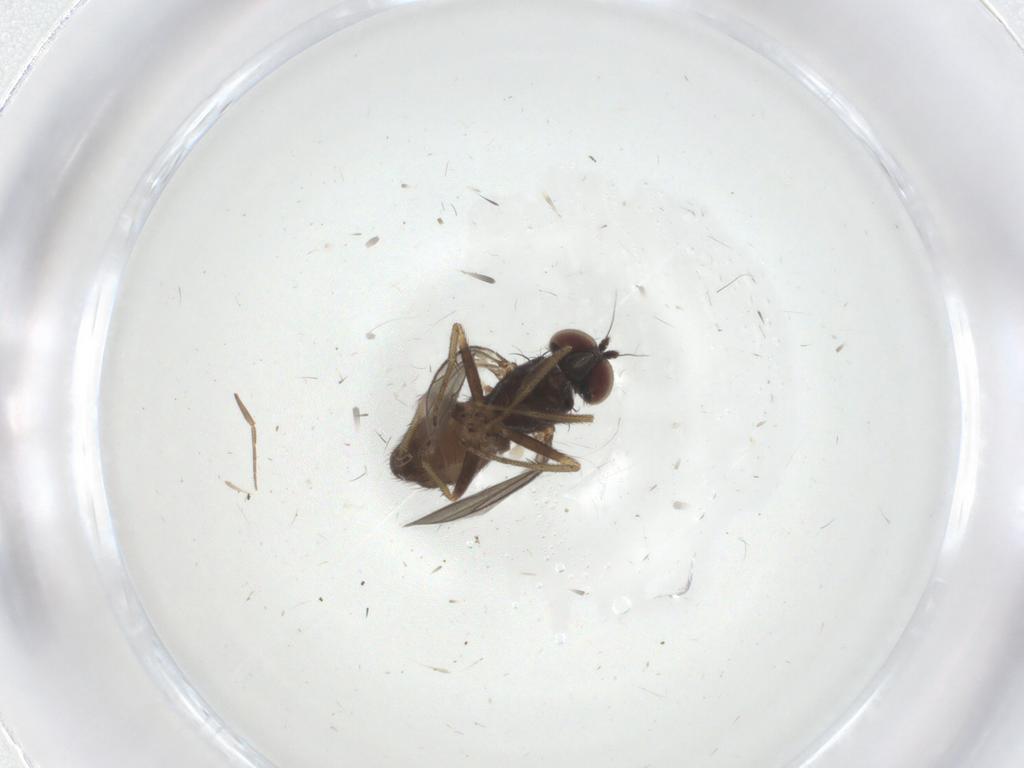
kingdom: Animalia
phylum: Arthropoda
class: Insecta
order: Diptera
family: Dolichopodidae
